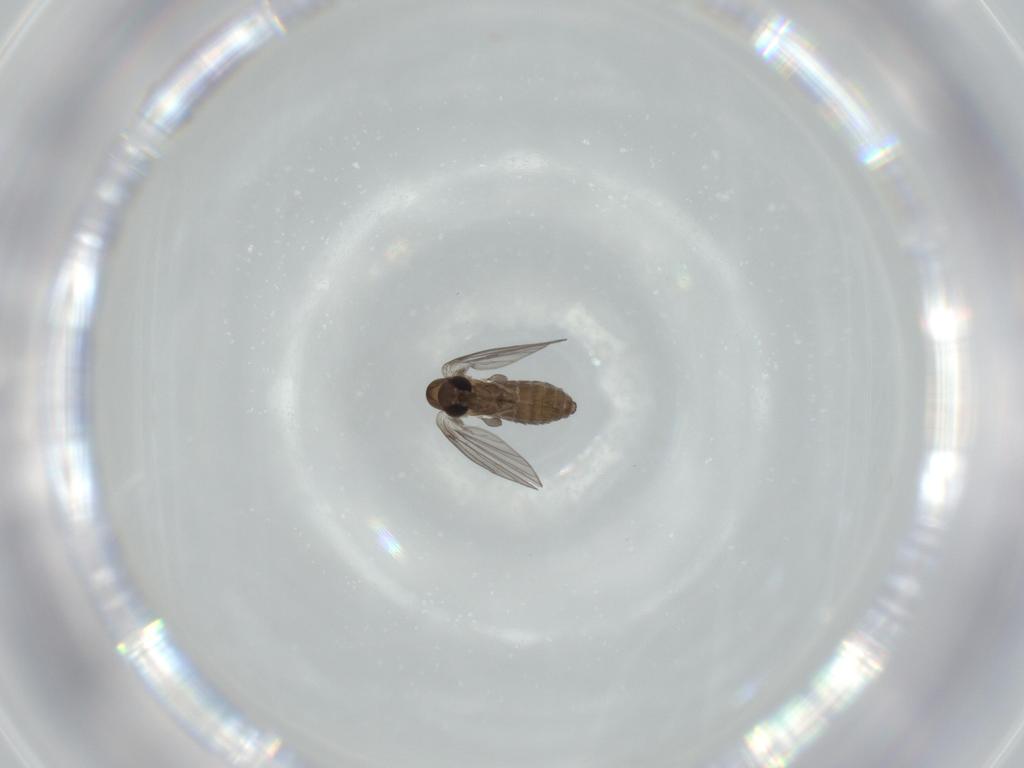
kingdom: Animalia
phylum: Arthropoda
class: Insecta
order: Diptera
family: Psychodidae
